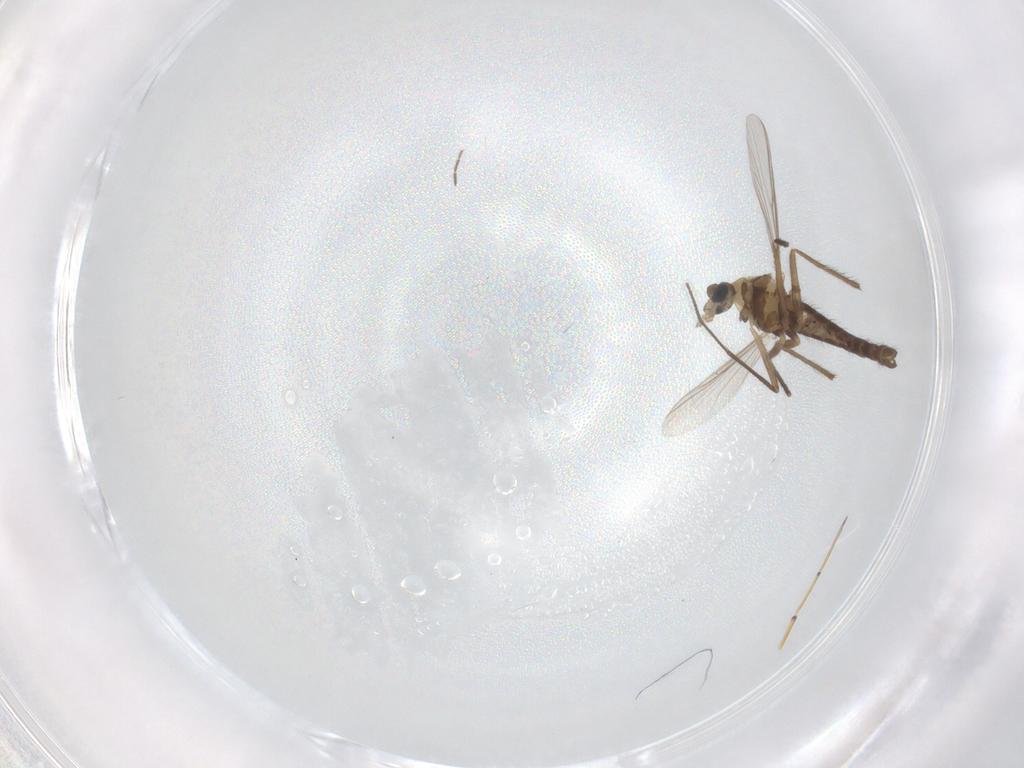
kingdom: Animalia
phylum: Arthropoda
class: Insecta
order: Diptera
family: Chironomidae
